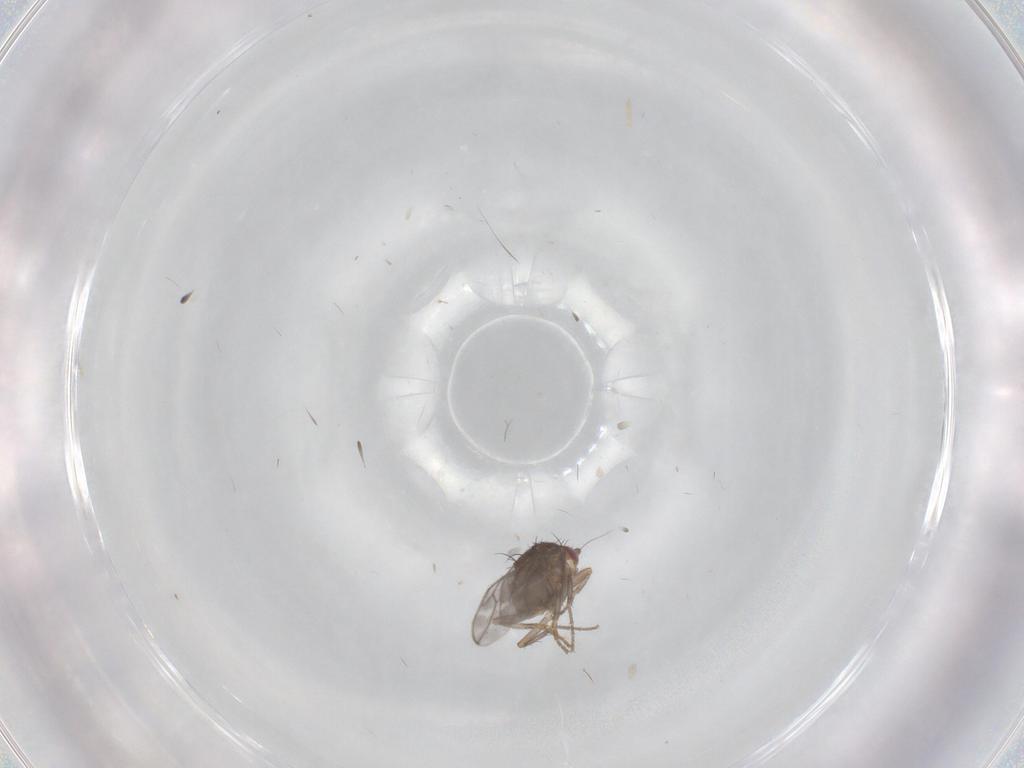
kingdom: Animalia
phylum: Arthropoda
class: Insecta
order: Diptera
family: Sphaeroceridae
